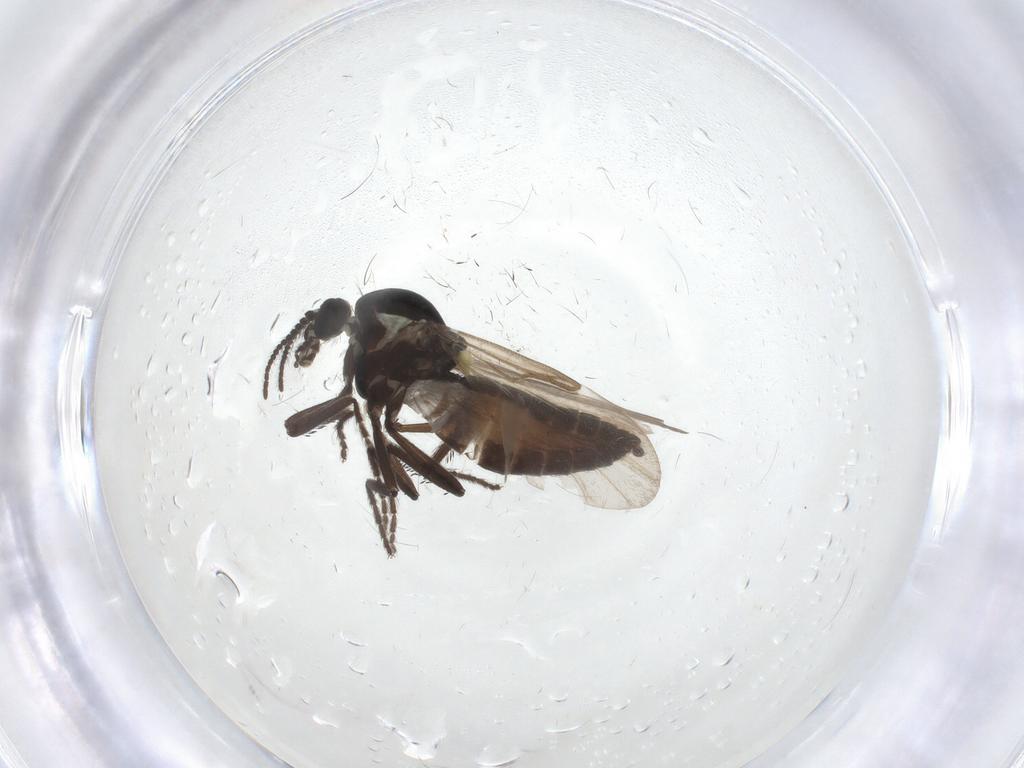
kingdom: Animalia
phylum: Arthropoda
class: Insecta
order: Diptera
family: Ceratopogonidae
